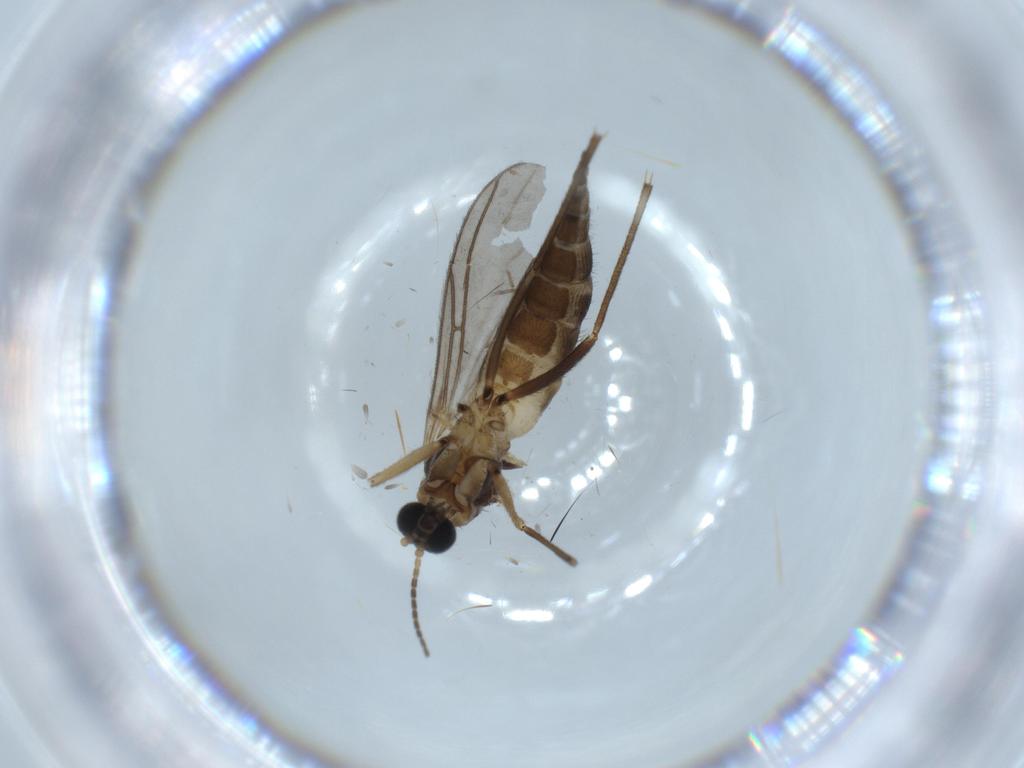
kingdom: Animalia
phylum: Arthropoda
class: Insecta
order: Diptera
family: Sciaridae
